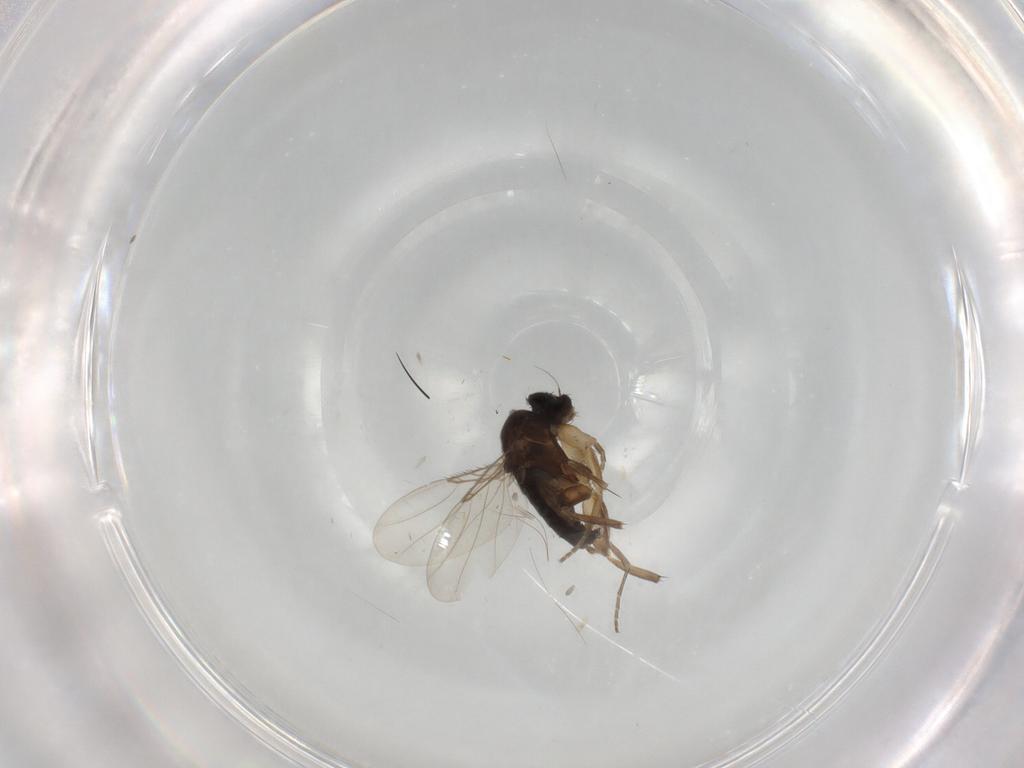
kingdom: Animalia
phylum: Arthropoda
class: Insecta
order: Diptera
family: Phoridae
